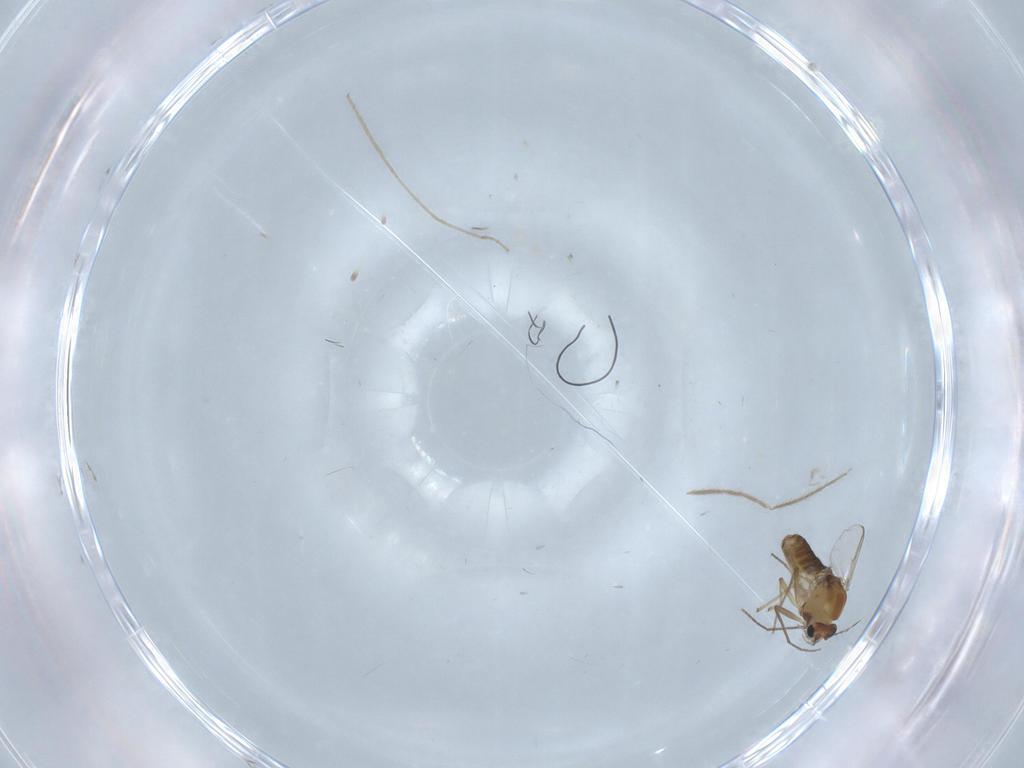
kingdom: Animalia
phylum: Arthropoda
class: Insecta
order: Diptera
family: Chironomidae
